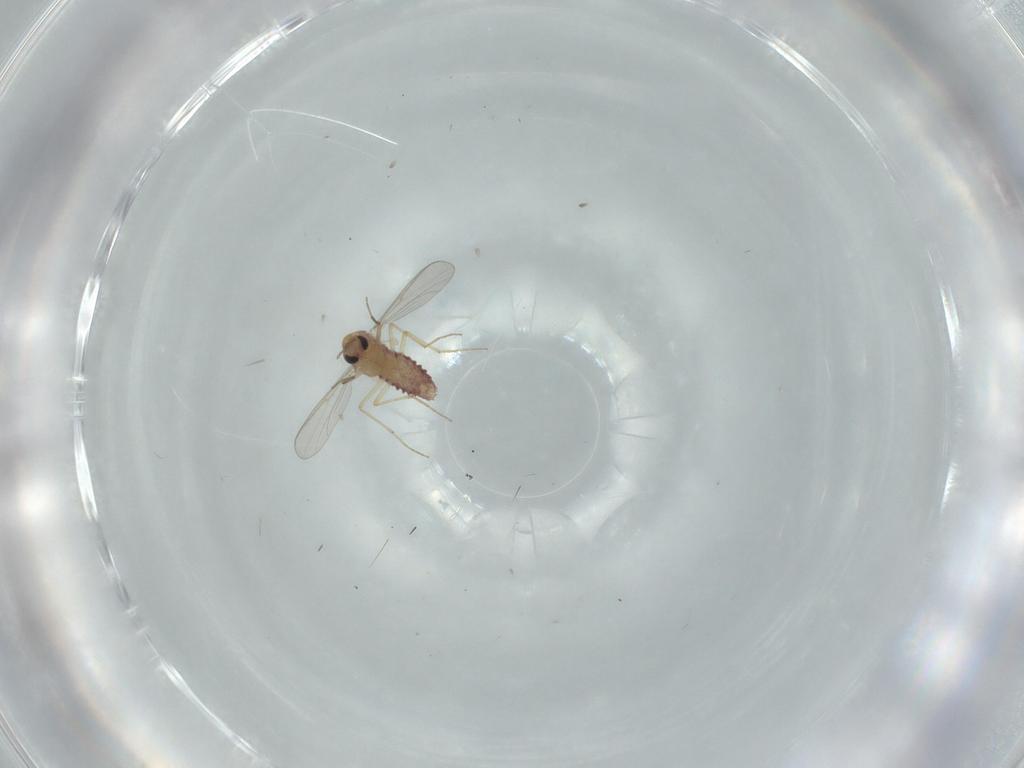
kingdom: Animalia
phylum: Arthropoda
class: Insecta
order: Diptera
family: Chironomidae
